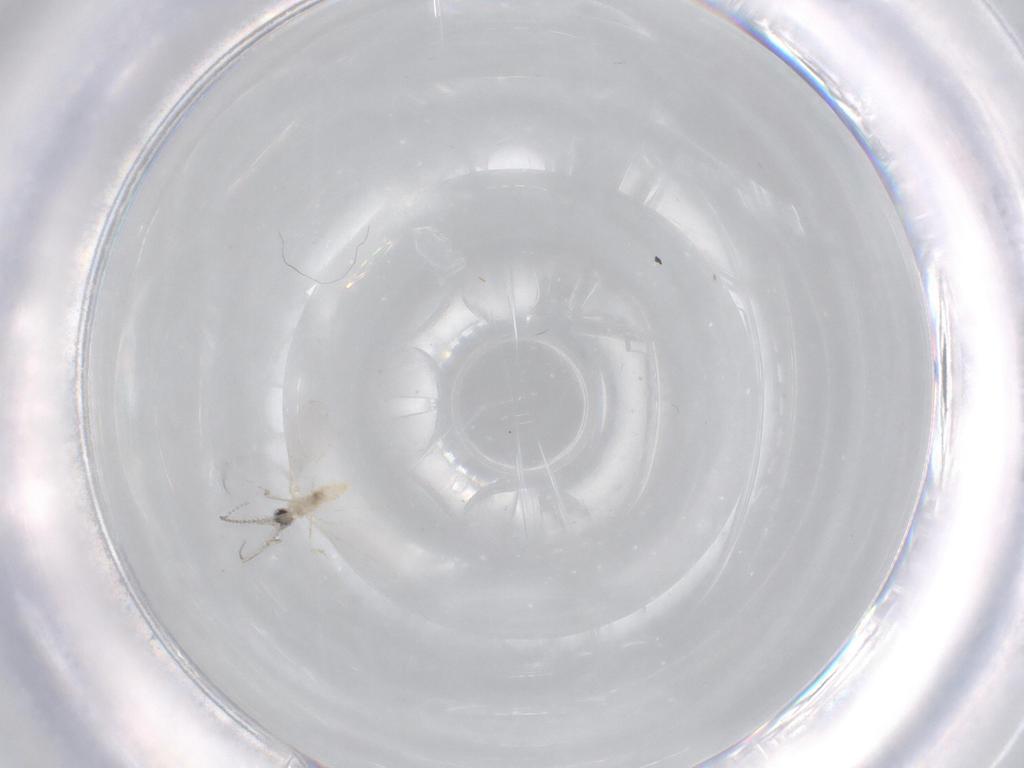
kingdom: Animalia
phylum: Arthropoda
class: Insecta
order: Diptera
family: Cecidomyiidae
